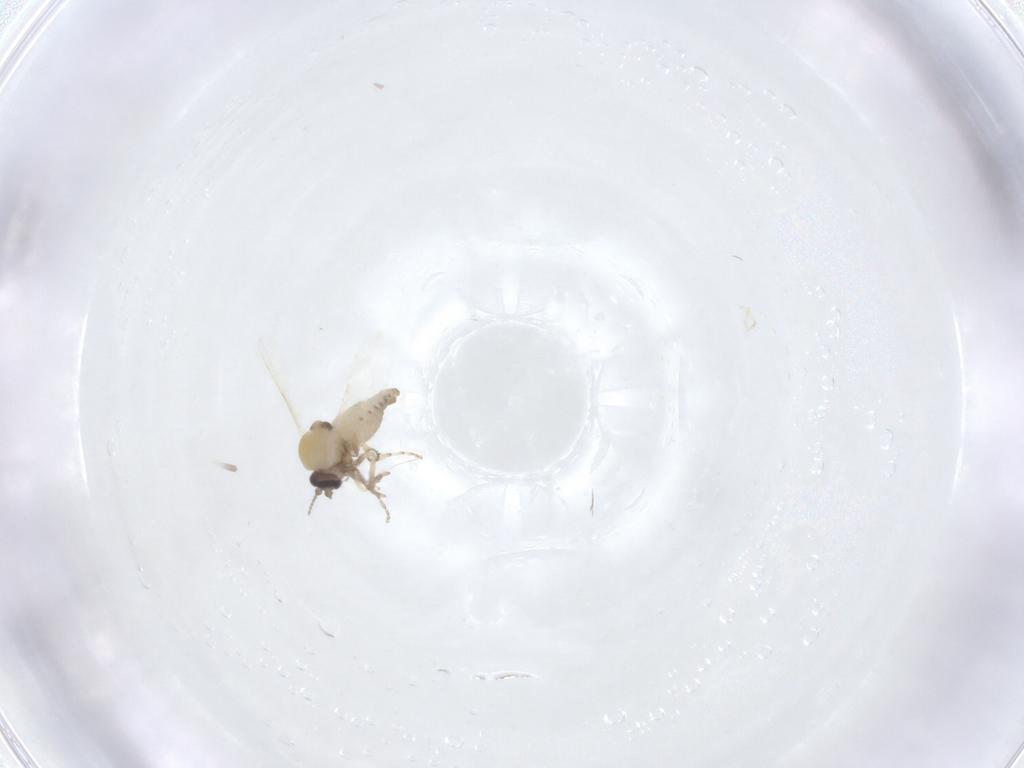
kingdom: Animalia
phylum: Arthropoda
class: Insecta
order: Diptera
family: Ceratopogonidae
